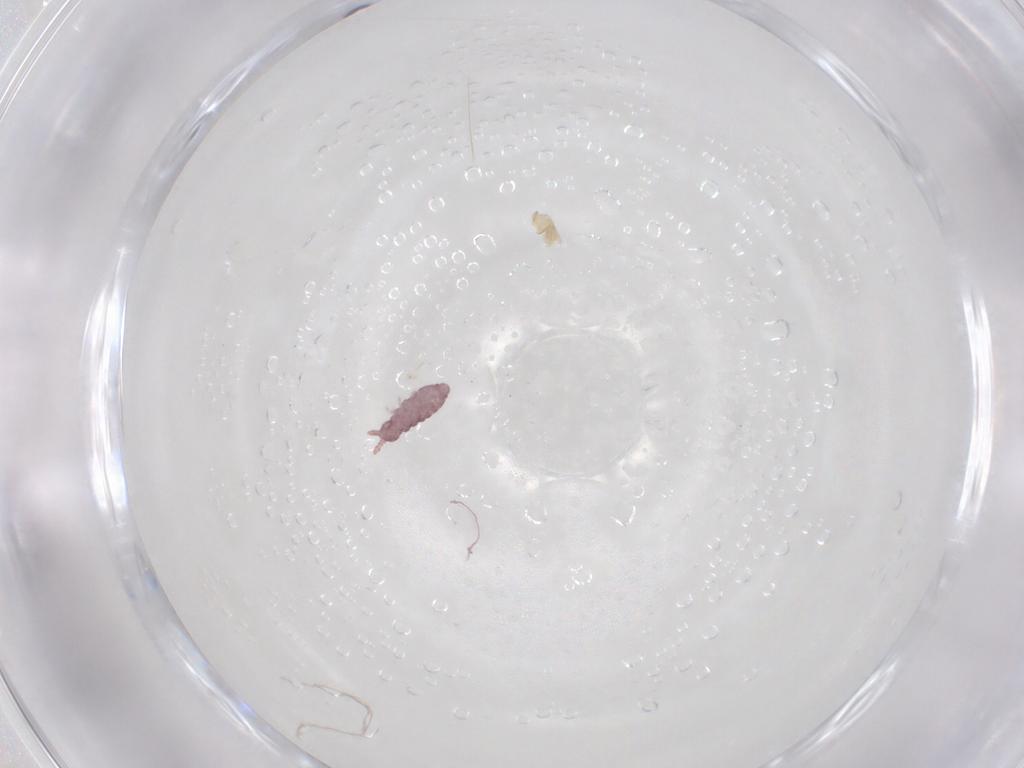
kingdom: Animalia
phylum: Arthropoda
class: Collembola
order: Poduromorpha
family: Hypogastruridae
